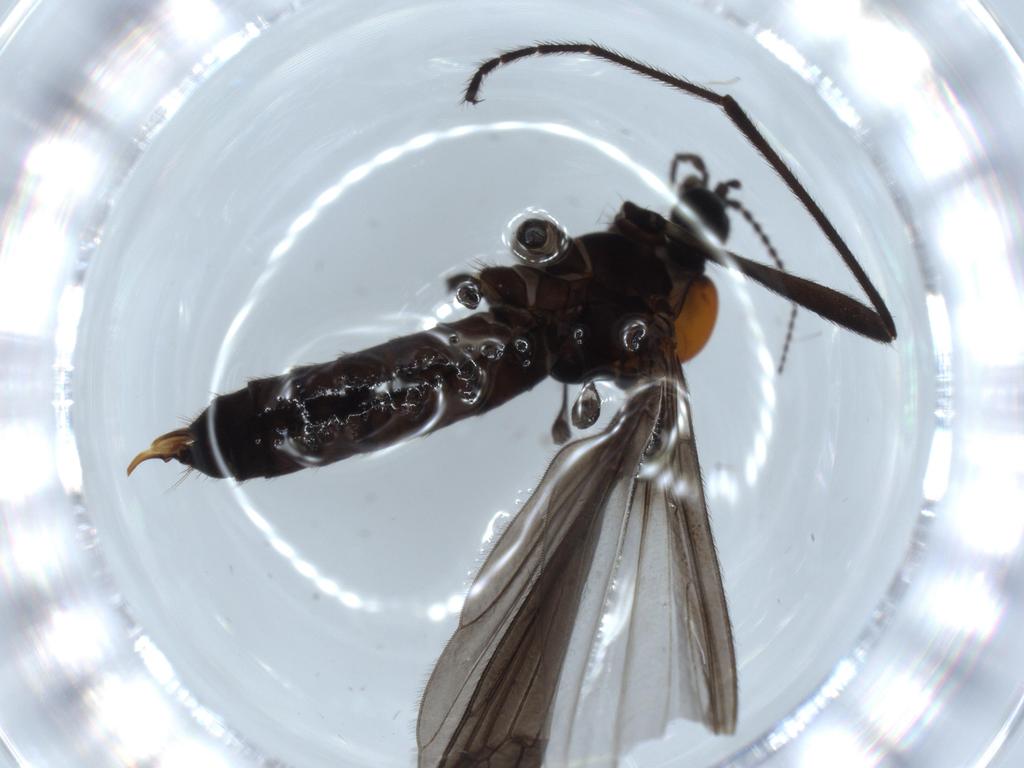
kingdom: Animalia
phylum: Arthropoda
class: Insecta
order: Diptera
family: Limoniidae
